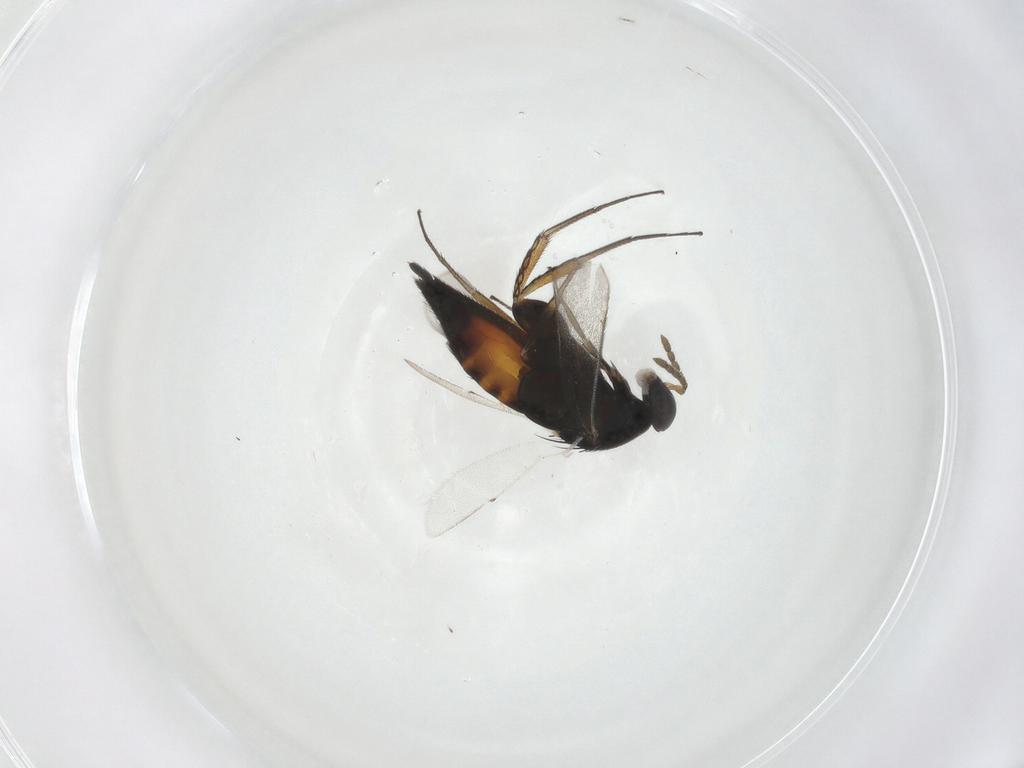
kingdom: Animalia
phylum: Arthropoda
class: Insecta
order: Hymenoptera
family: Eulophidae
